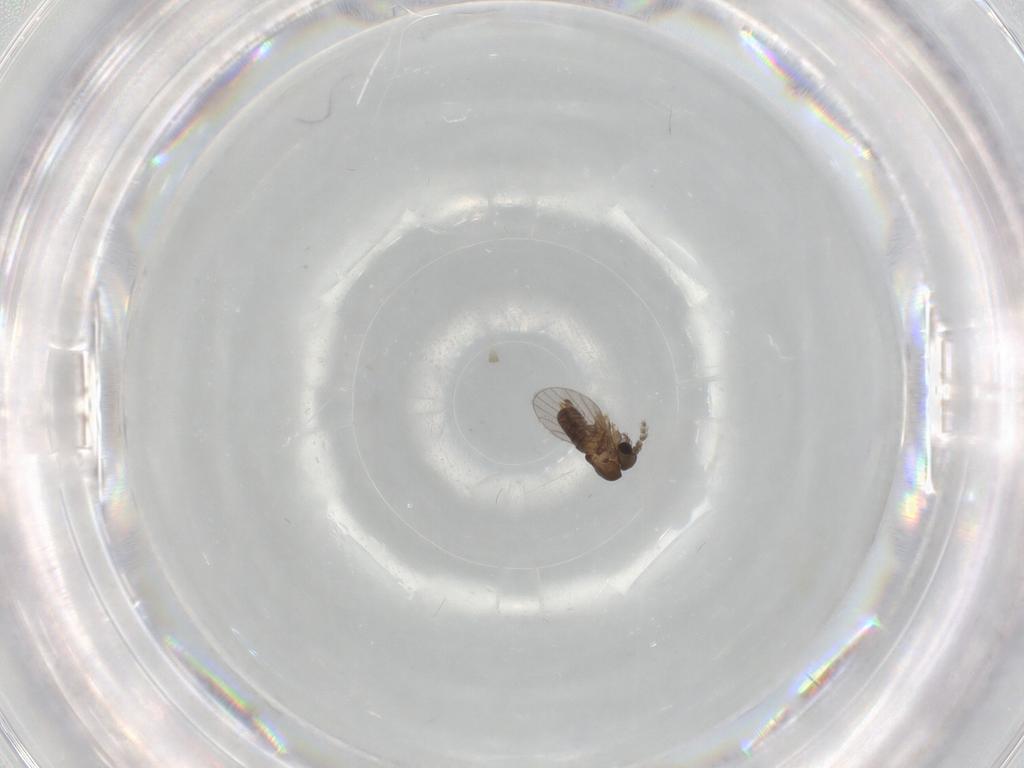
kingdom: Animalia
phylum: Arthropoda
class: Insecta
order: Diptera
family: Chironomidae
